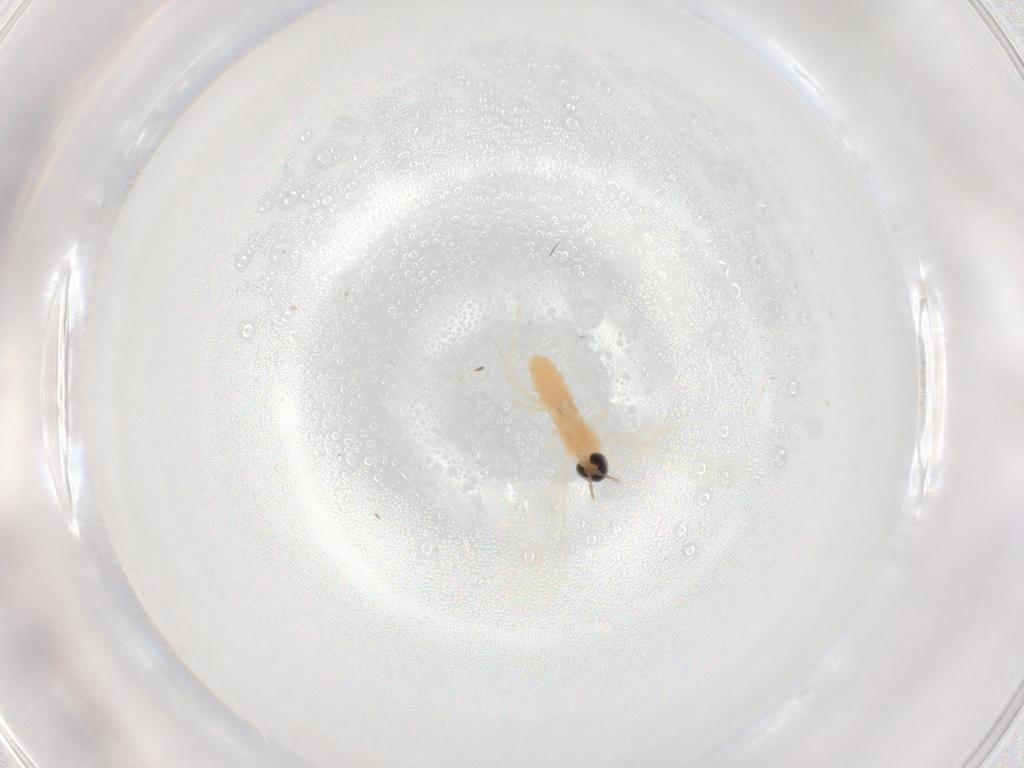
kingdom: Animalia
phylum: Arthropoda
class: Insecta
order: Diptera
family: Cecidomyiidae
